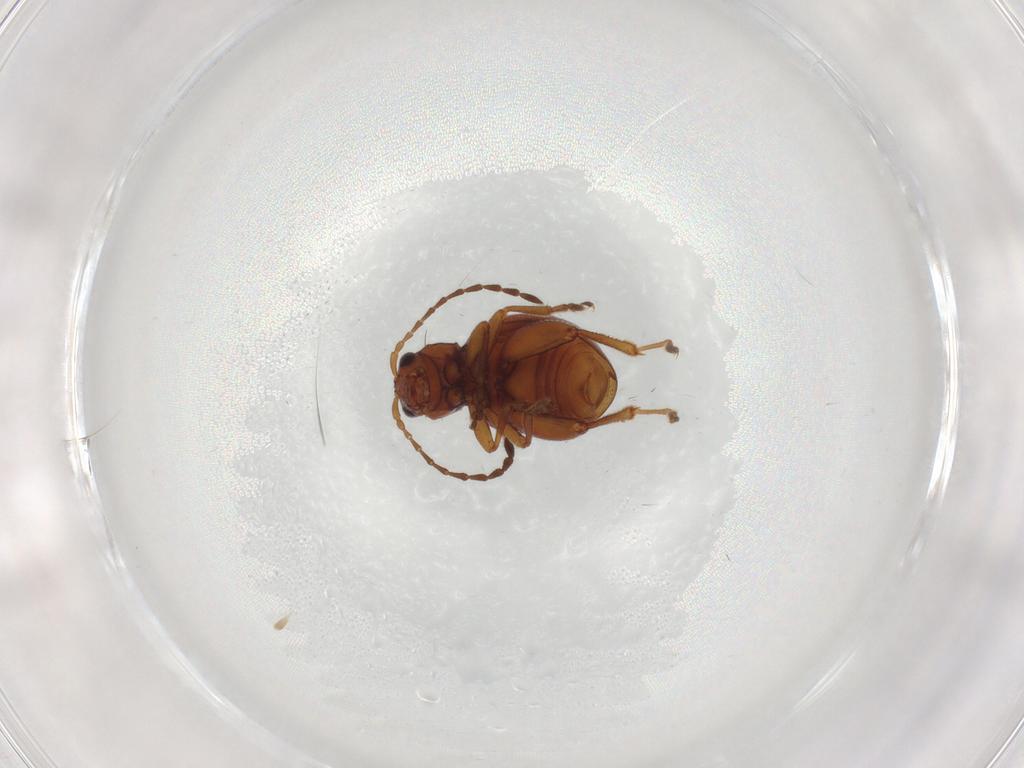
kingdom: Animalia
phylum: Arthropoda
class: Insecta
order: Coleoptera
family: Chrysomelidae
